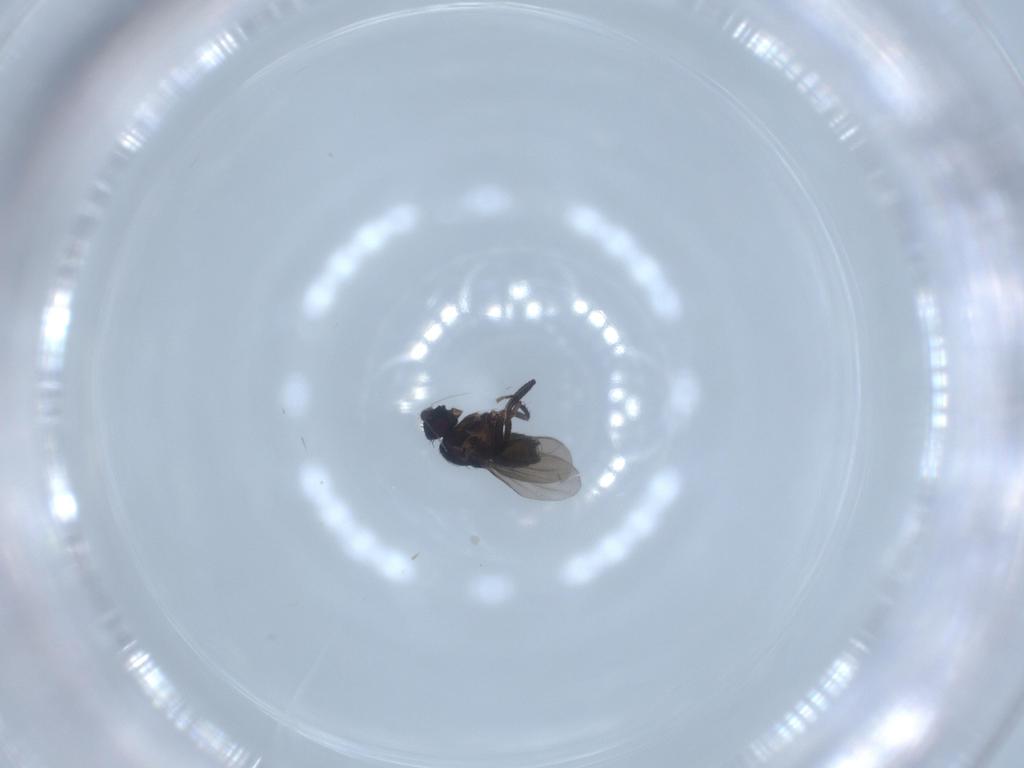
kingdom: Animalia
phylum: Arthropoda
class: Insecta
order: Diptera
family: Sphaeroceridae
